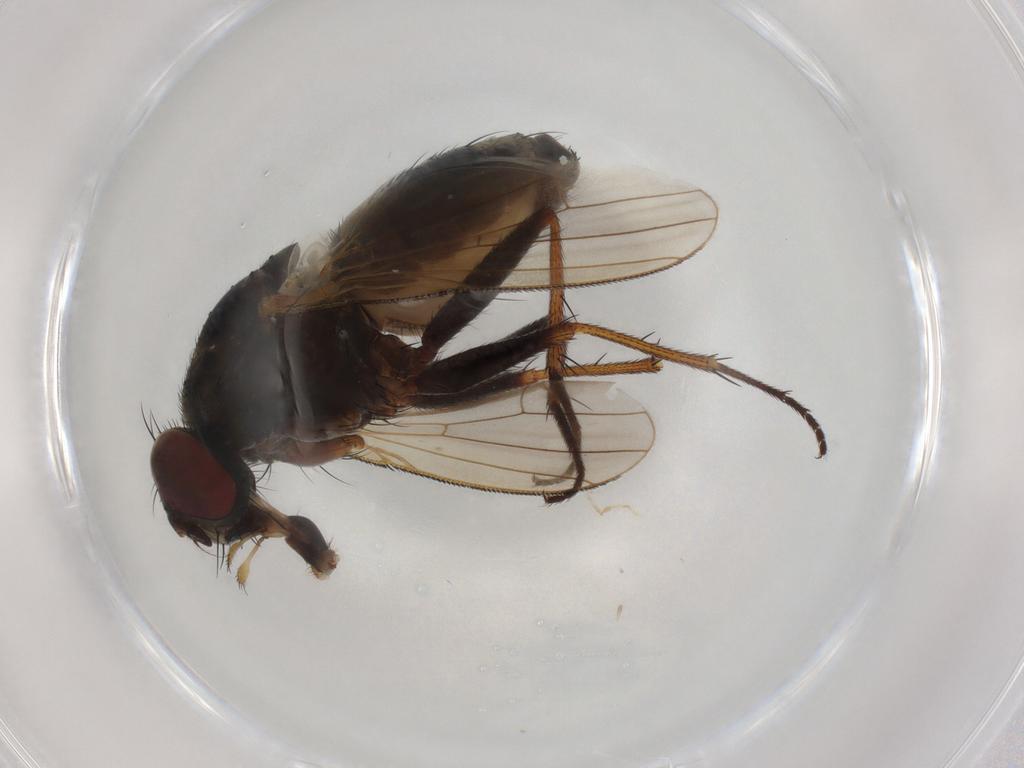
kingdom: Animalia
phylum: Arthropoda
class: Insecta
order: Diptera
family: Muscidae
